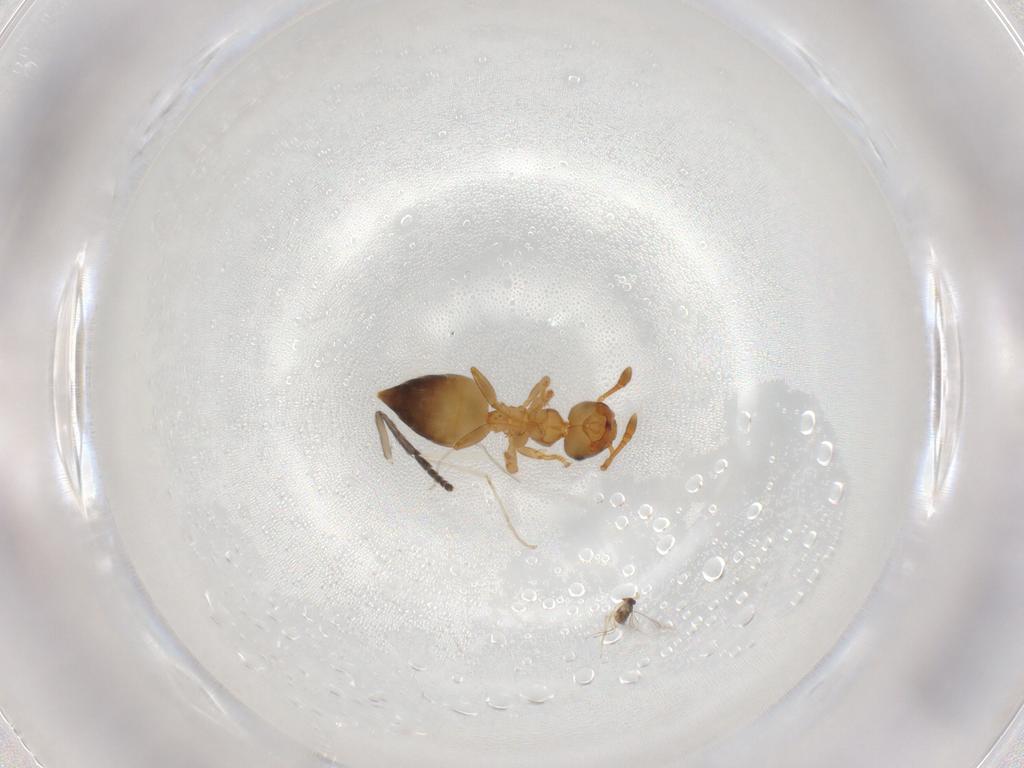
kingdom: Animalia
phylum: Arthropoda
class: Insecta
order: Hymenoptera
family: Formicidae
